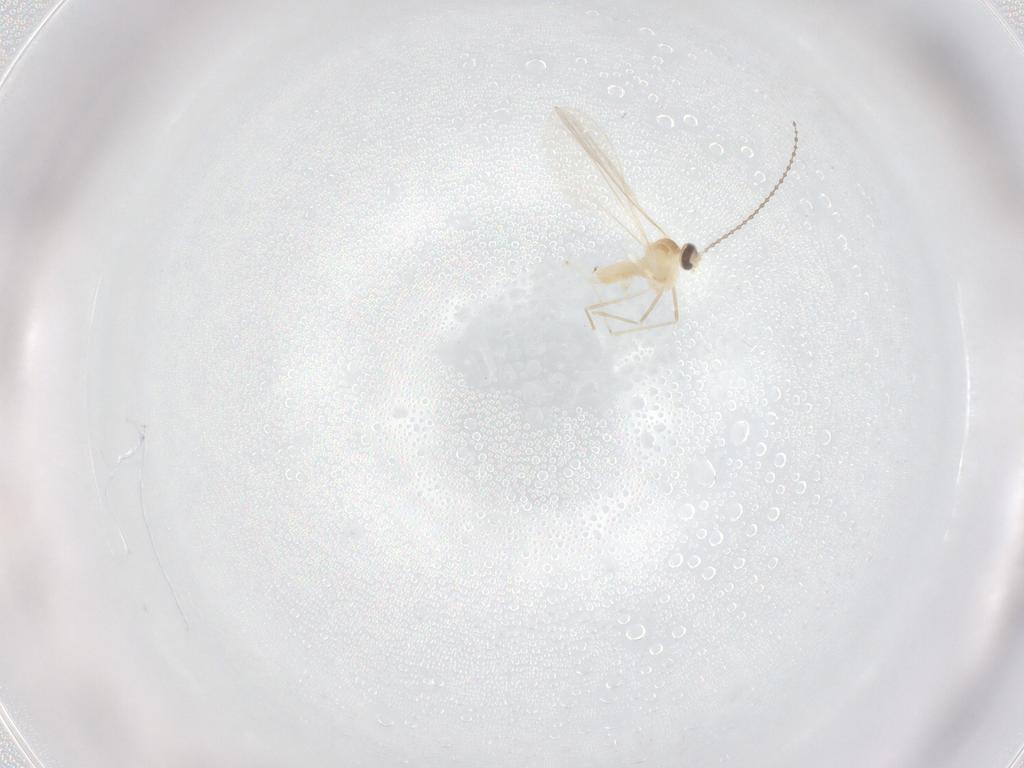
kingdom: Animalia
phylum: Arthropoda
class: Insecta
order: Diptera
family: Cecidomyiidae
